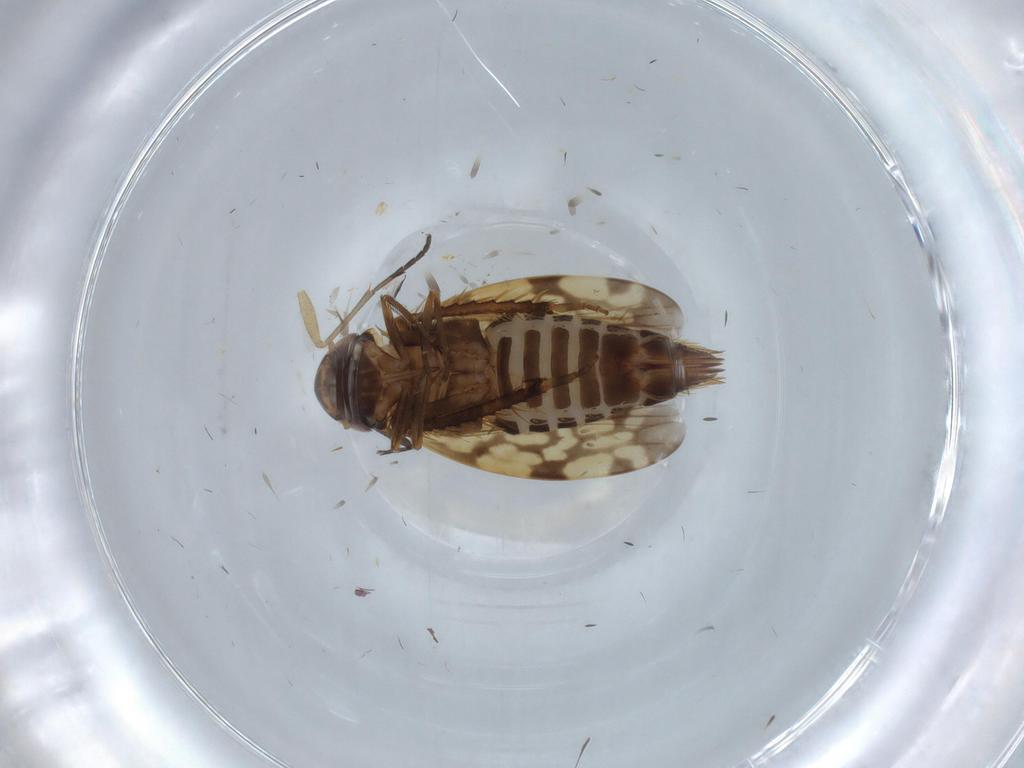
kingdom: Animalia
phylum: Arthropoda
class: Insecta
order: Hemiptera
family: Cicadellidae
